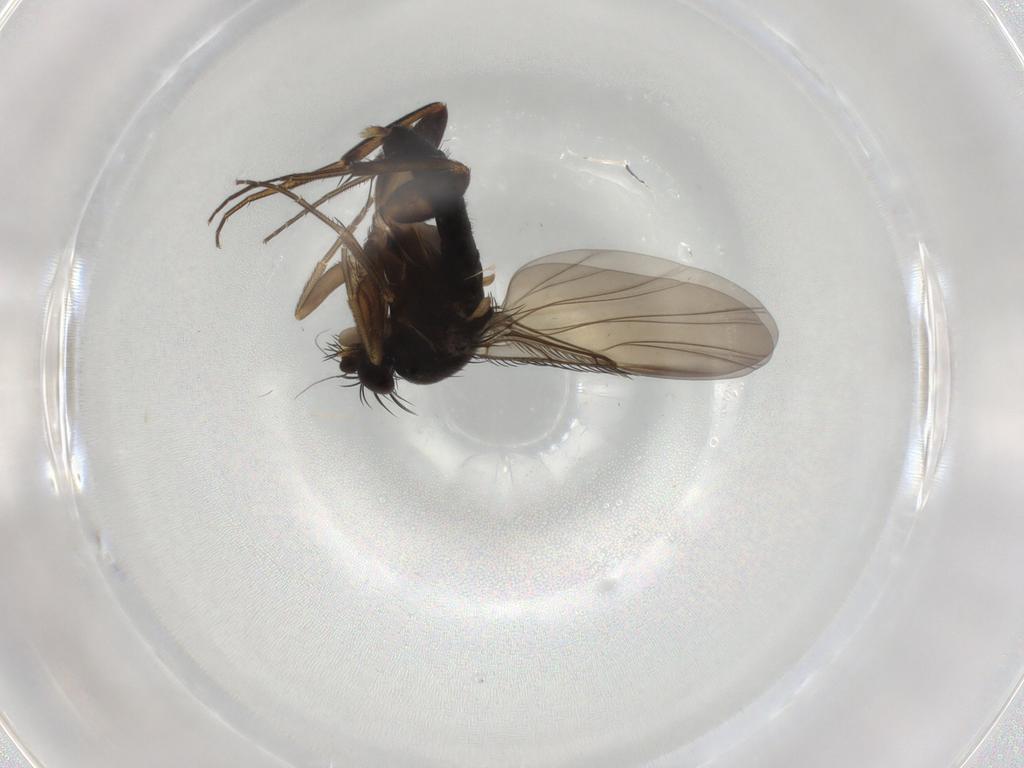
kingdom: Animalia
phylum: Arthropoda
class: Insecta
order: Diptera
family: Phoridae
